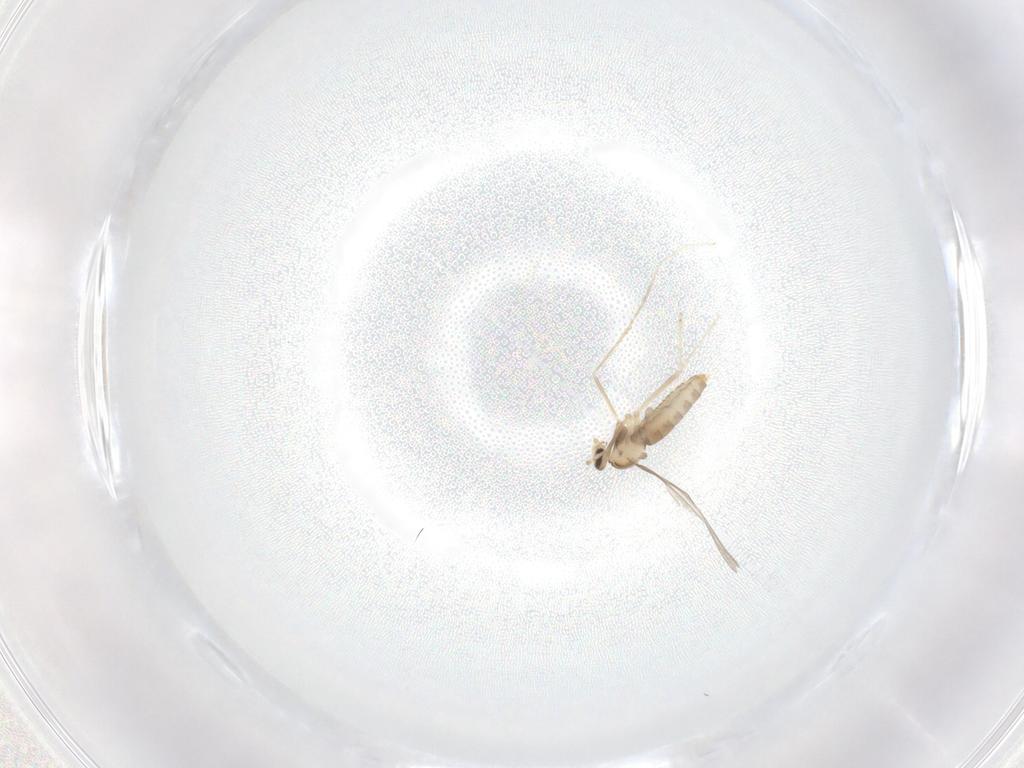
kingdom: Animalia
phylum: Arthropoda
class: Insecta
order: Diptera
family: Cecidomyiidae
